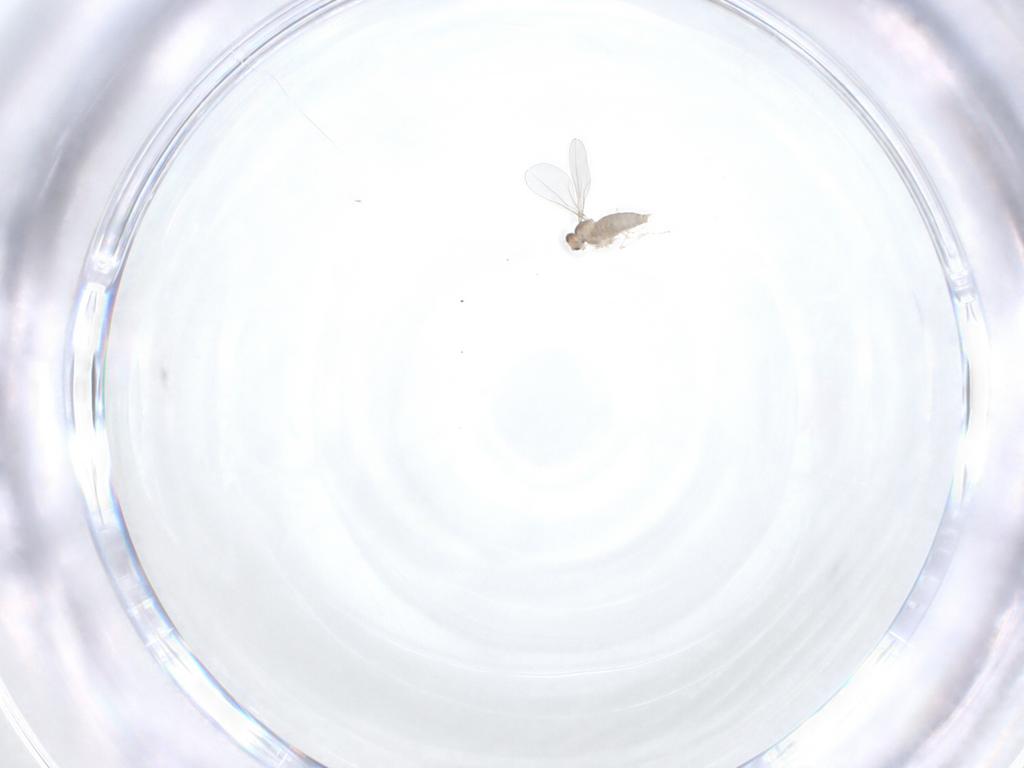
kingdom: Animalia
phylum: Arthropoda
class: Insecta
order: Diptera
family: Cecidomyiidae
